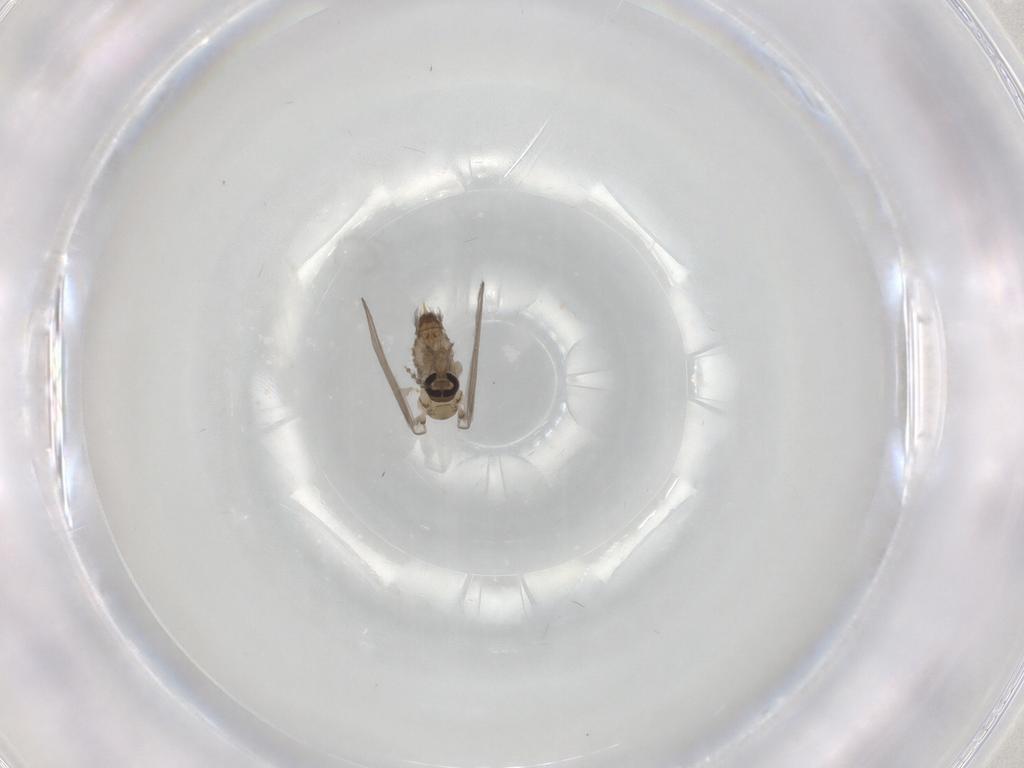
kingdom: Animalia
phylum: Arthropoda
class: Insecta
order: Diptera
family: Psychodidae
